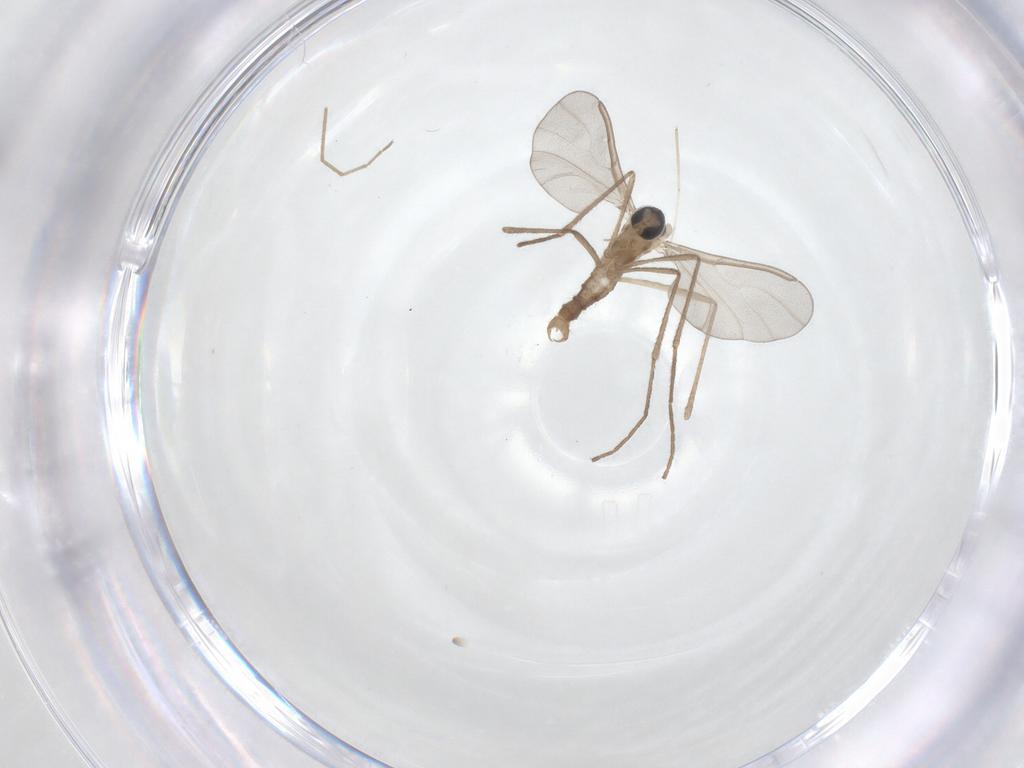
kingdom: Animalia
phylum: Arthropoda
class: Insecta
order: Diptera
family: Cecidomyiidae
